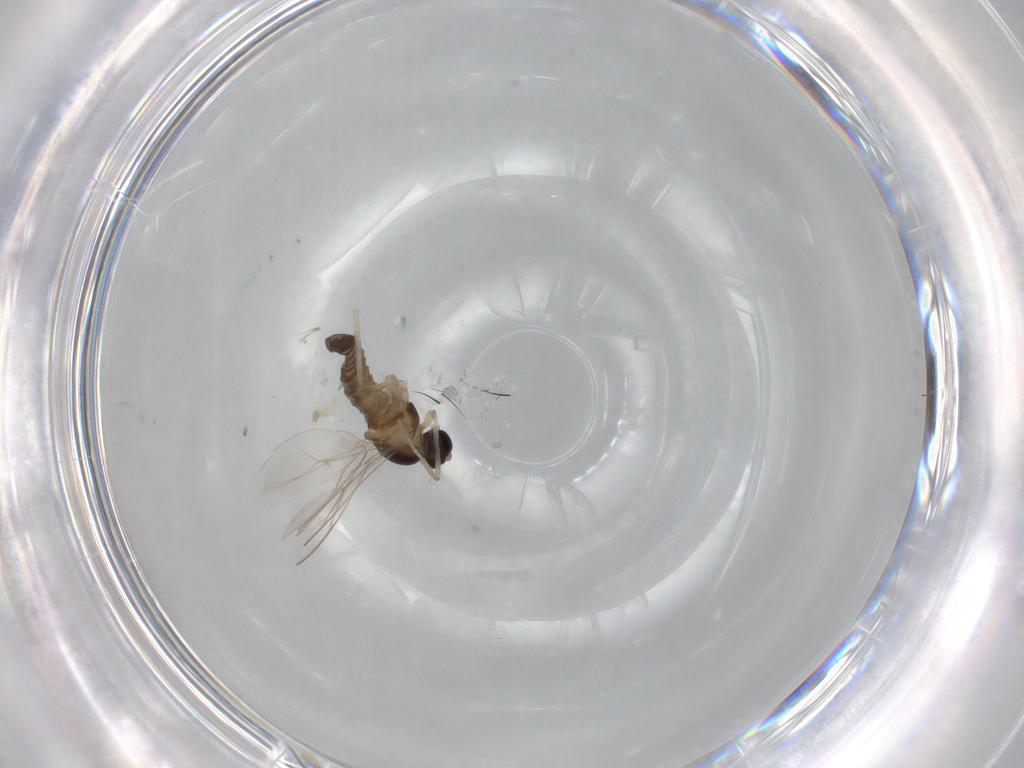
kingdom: Animalia
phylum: Arthropoda
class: Insecta
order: Diptera
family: Cecidomyiidae
